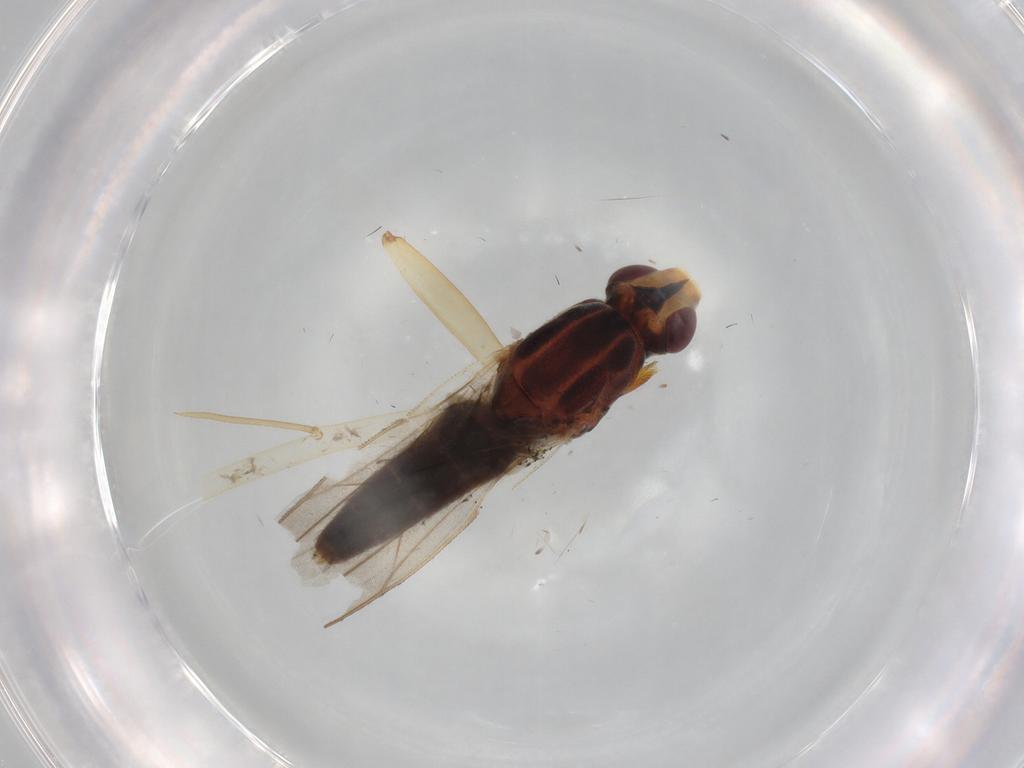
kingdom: Animalia
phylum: Arthropoda
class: Insecta
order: Diptera
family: Chloropidae
